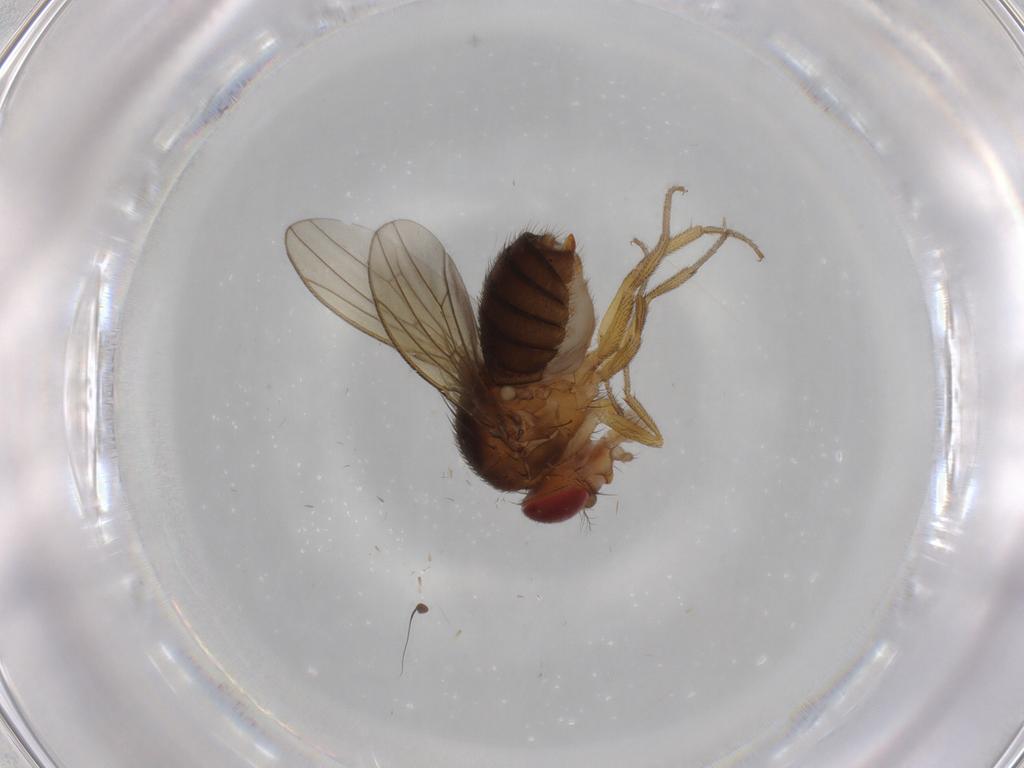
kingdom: Animalia
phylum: Arthropoda
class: Insecta
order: Diptera
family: Drosophilidae
